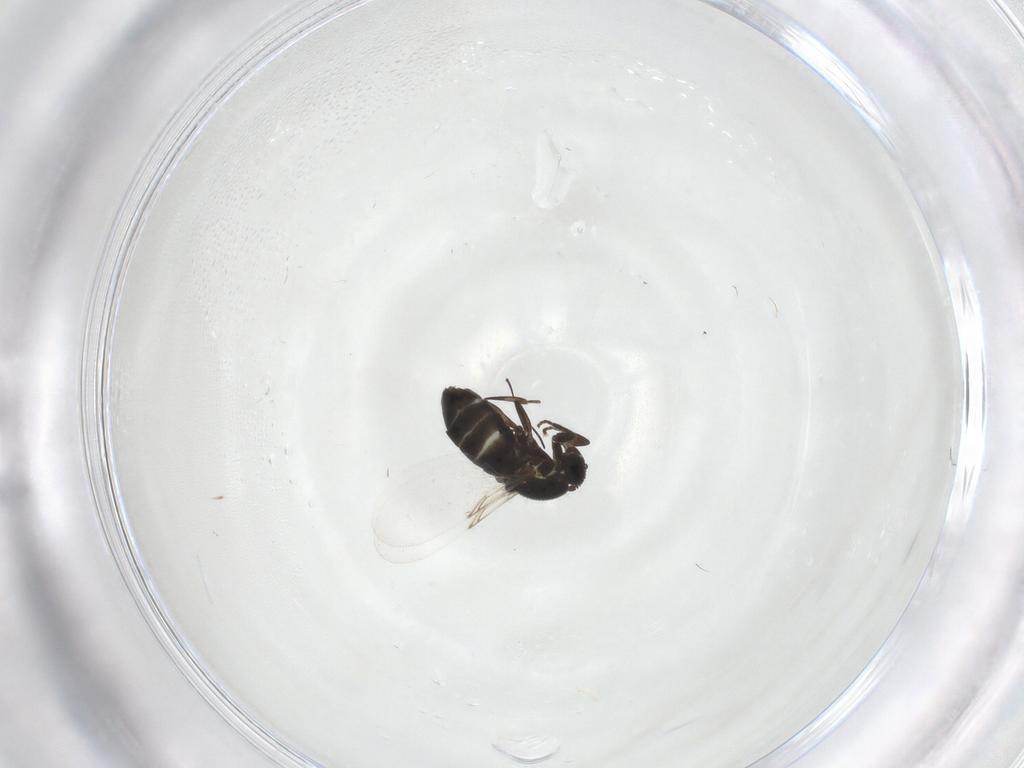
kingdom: Animalia
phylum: Arthropoda
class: Insecta
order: Diptera
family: Scatopsidae
